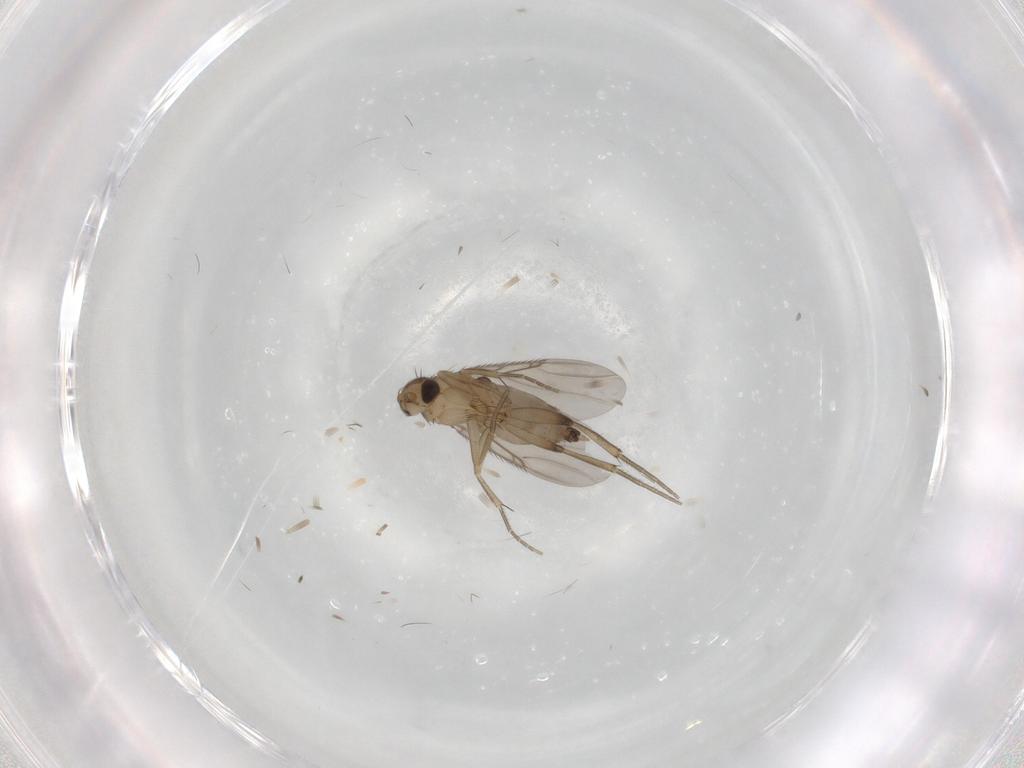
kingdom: Animalia
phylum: Arthropoda
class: Insecta
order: Diptera
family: Phoridae
